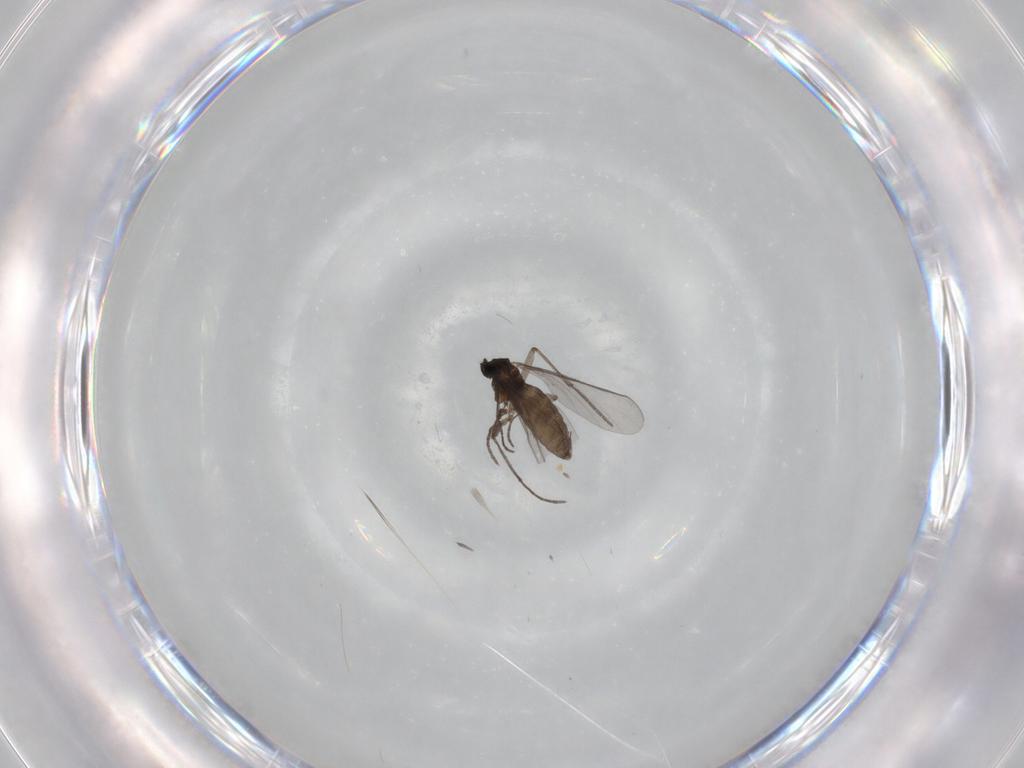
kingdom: Animalia
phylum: Arthropoda
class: Insecta
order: Diptera
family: Sciaridae
